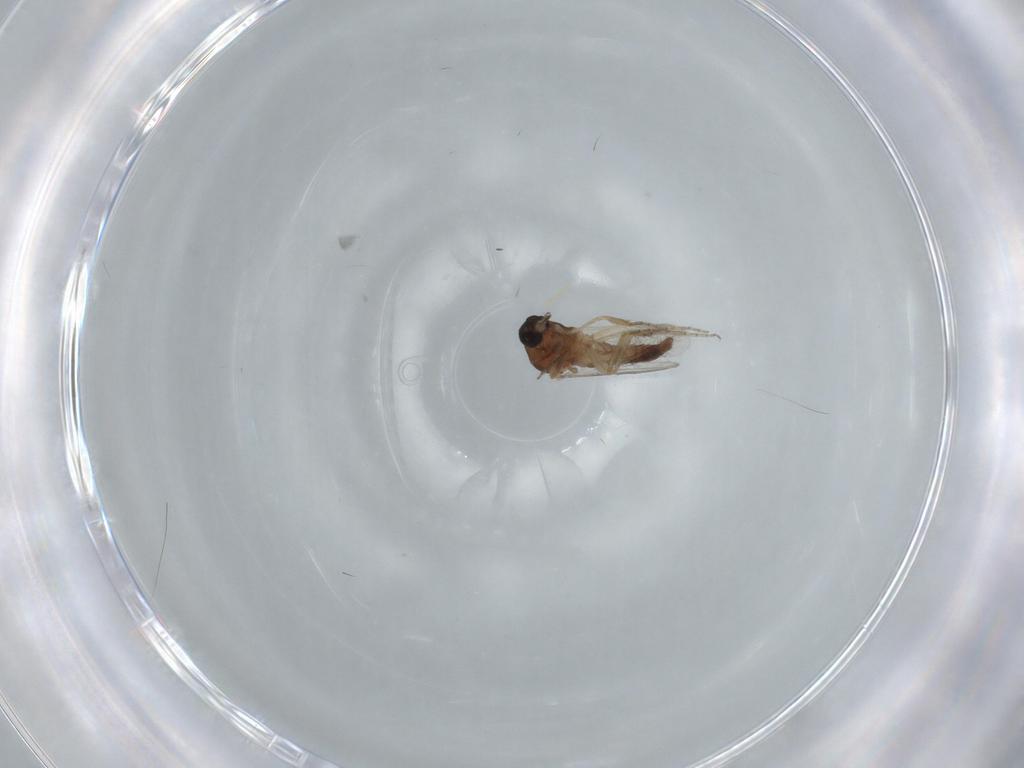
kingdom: Animalia
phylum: Arthropoda
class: Insecta
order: Diptera
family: Ceratopogonidae
